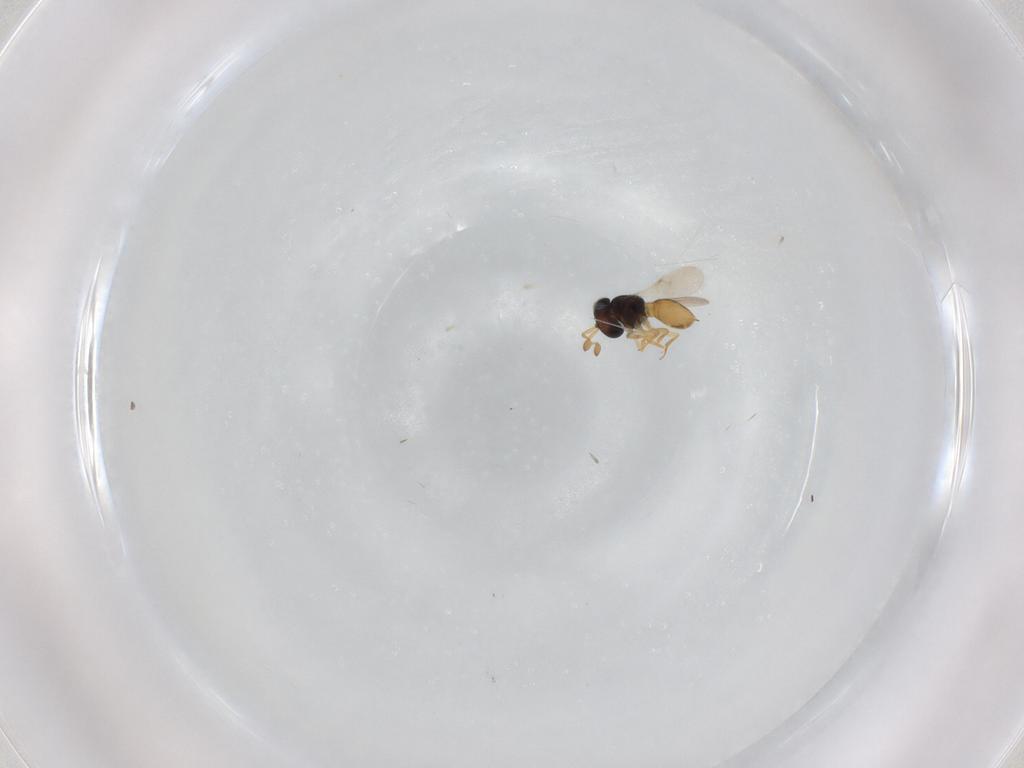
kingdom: Animalia
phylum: Arthropoda
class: Insecta
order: Hymenoptera
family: Scelionidae
